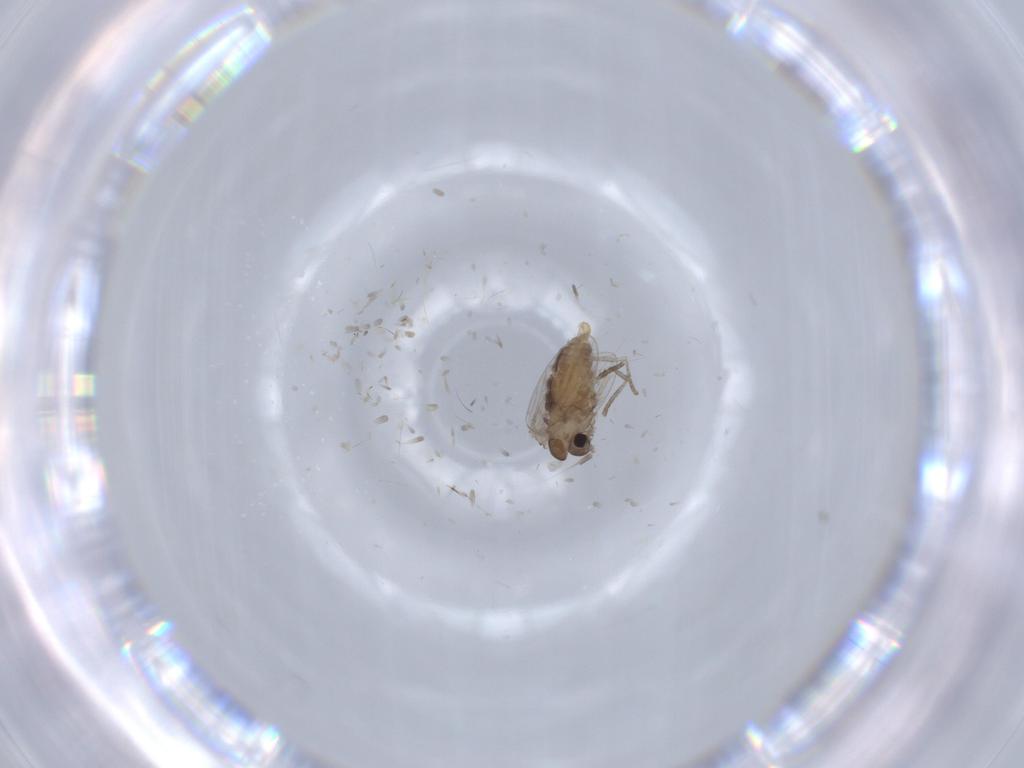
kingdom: Animalia
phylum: Arthropoda
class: Insecta
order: Diptera
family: Psychodidae
